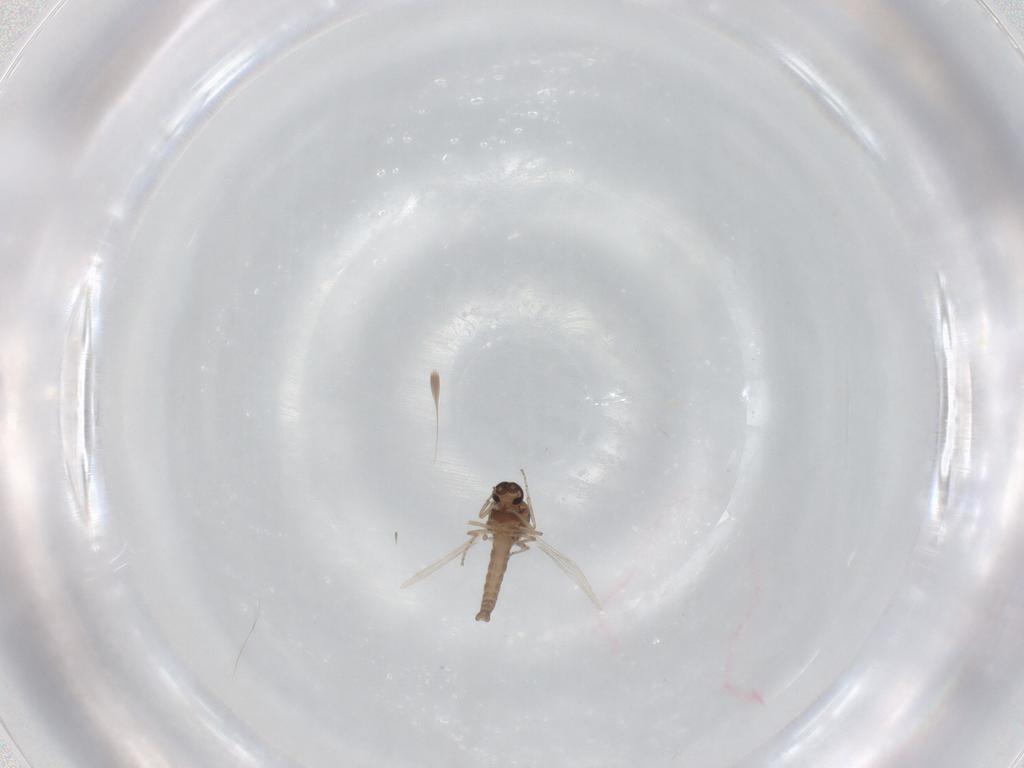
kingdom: Animalia
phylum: Arthropoda
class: Insecta
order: Diptera
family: Ceratopogonidae
